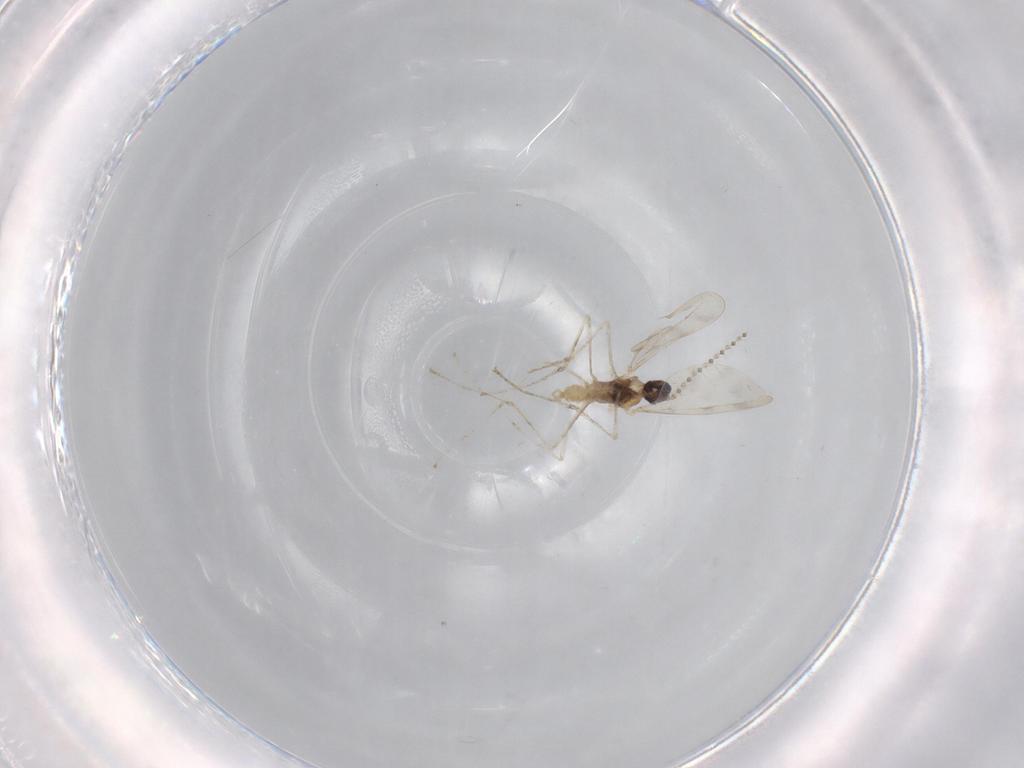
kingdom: Animalia
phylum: Arthropoda
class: Insecta
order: Diptera
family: Cecidomyiidae
